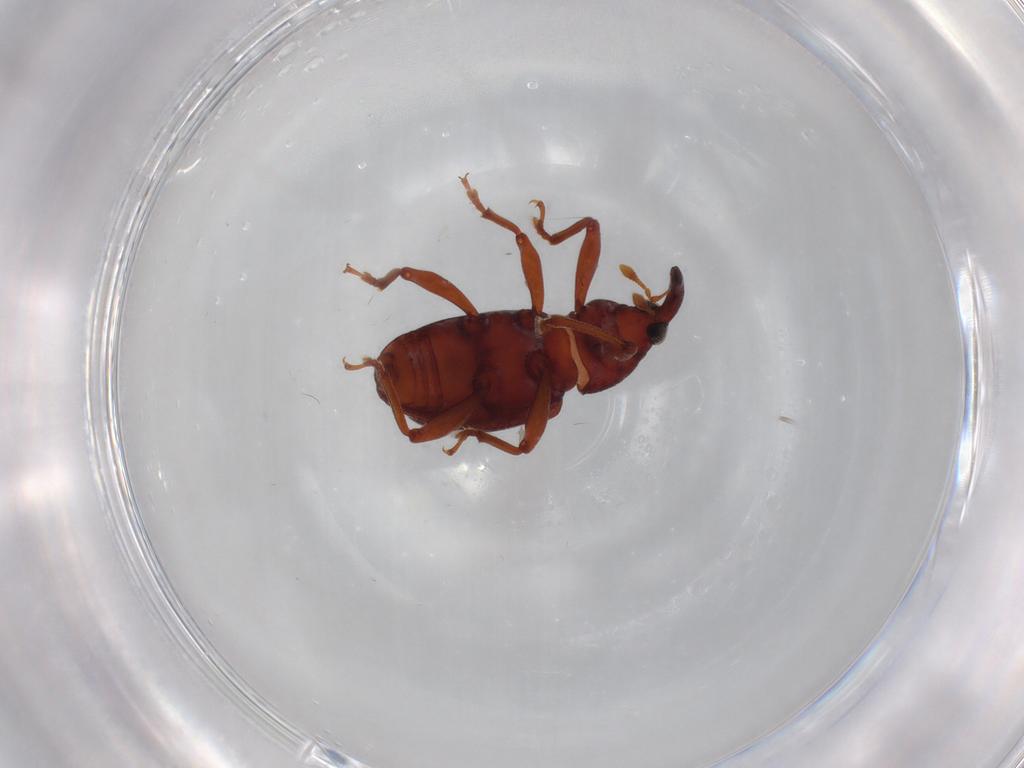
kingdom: Animalia
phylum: Arthropoda
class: Insecta
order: Coleoptera
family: Curculionidae
